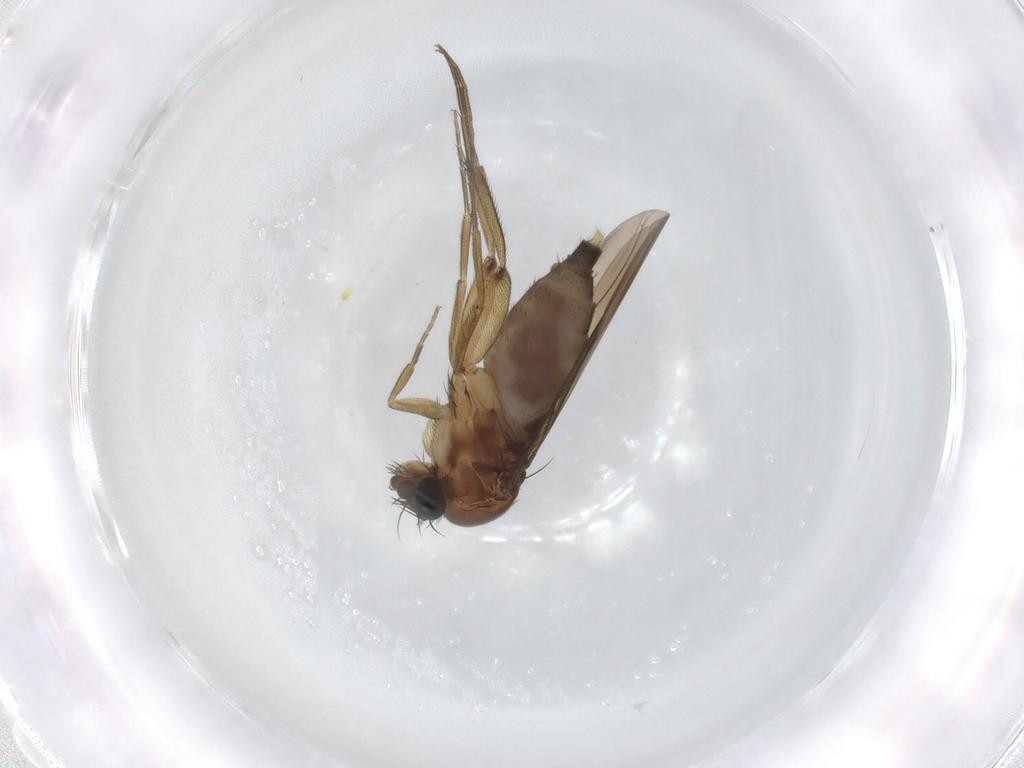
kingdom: Animalia
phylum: Arthropoda
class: Insecta
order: Diptera
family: Phoridae
